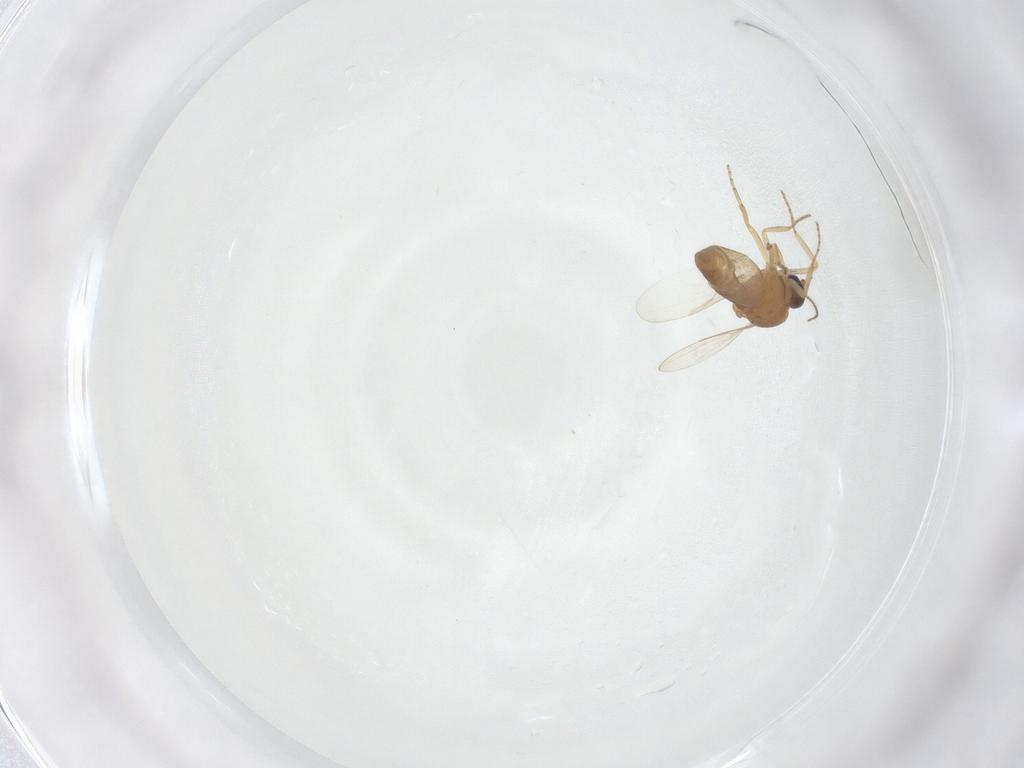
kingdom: Animalia
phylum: Arthropoda
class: Insecta
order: Diptera
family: Ceratopogonidae
